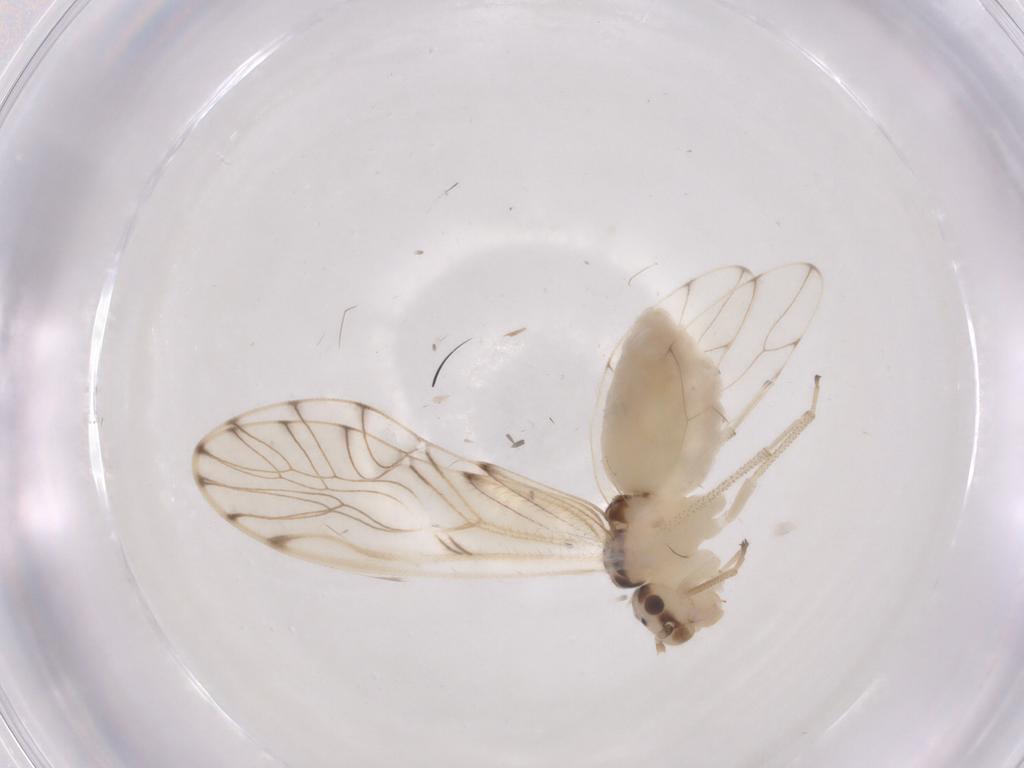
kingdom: Animalia
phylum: Arthropoda
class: Insecta
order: Psocodea
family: Philotarsidae
